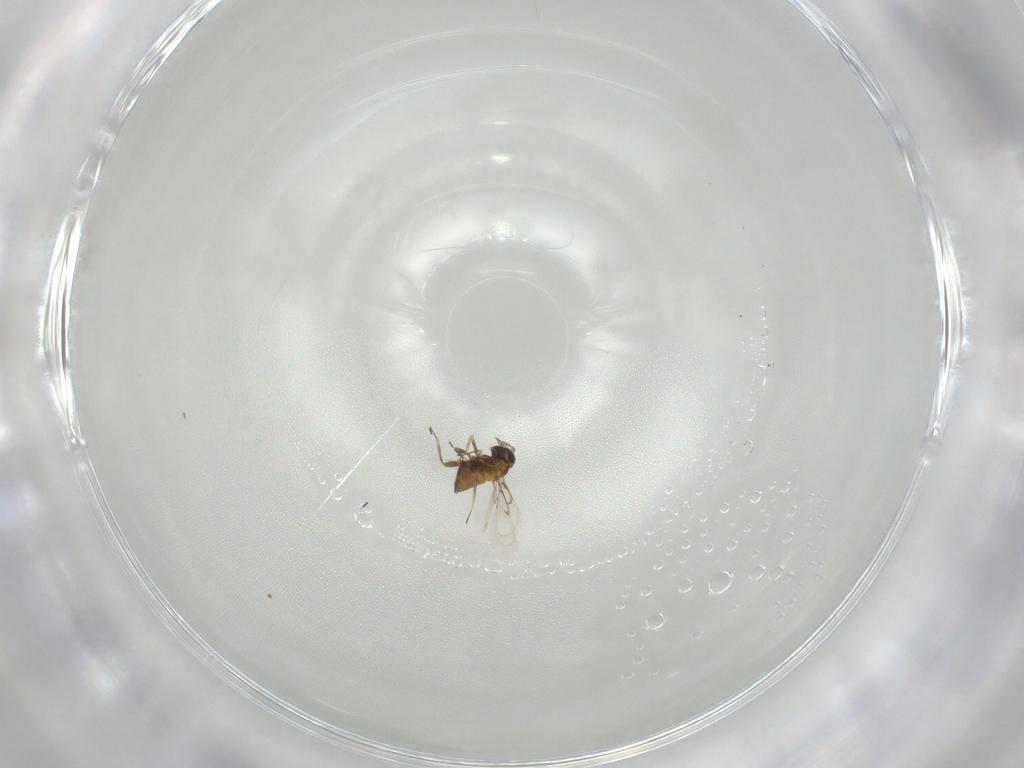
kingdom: Animalia
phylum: Arthropoda
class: Insecta
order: Hymenoptera
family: Trichogrammatidae
